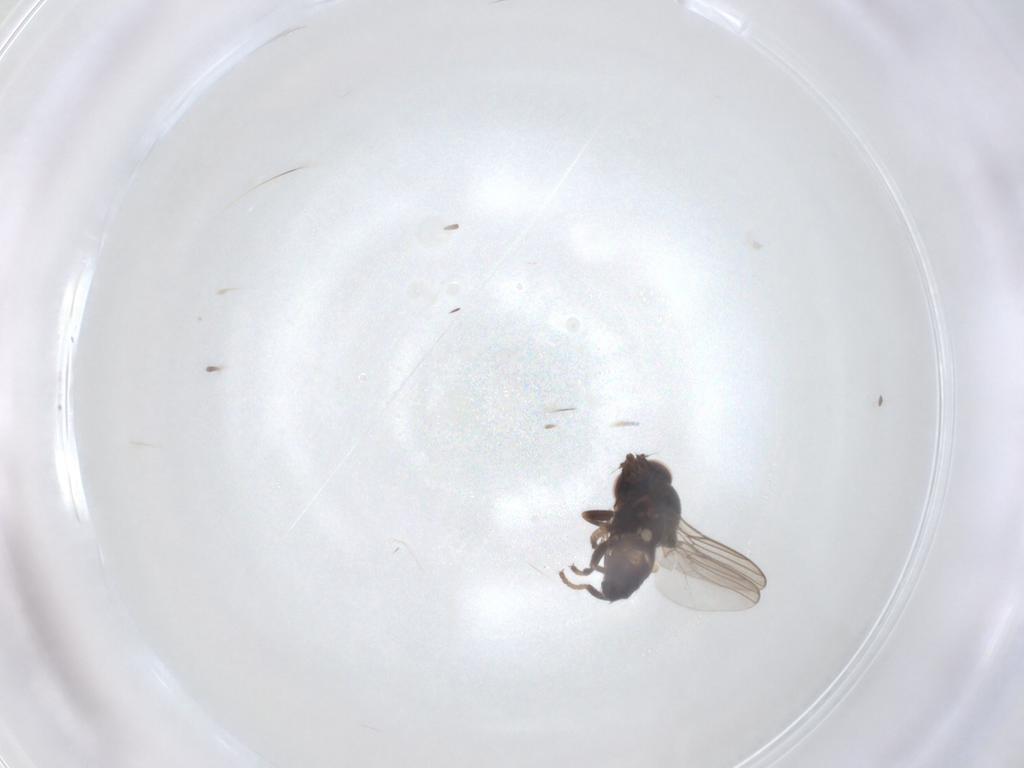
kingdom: Animalia
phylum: Arthropoda
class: Insecta
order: Diptera
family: Chloropidae
